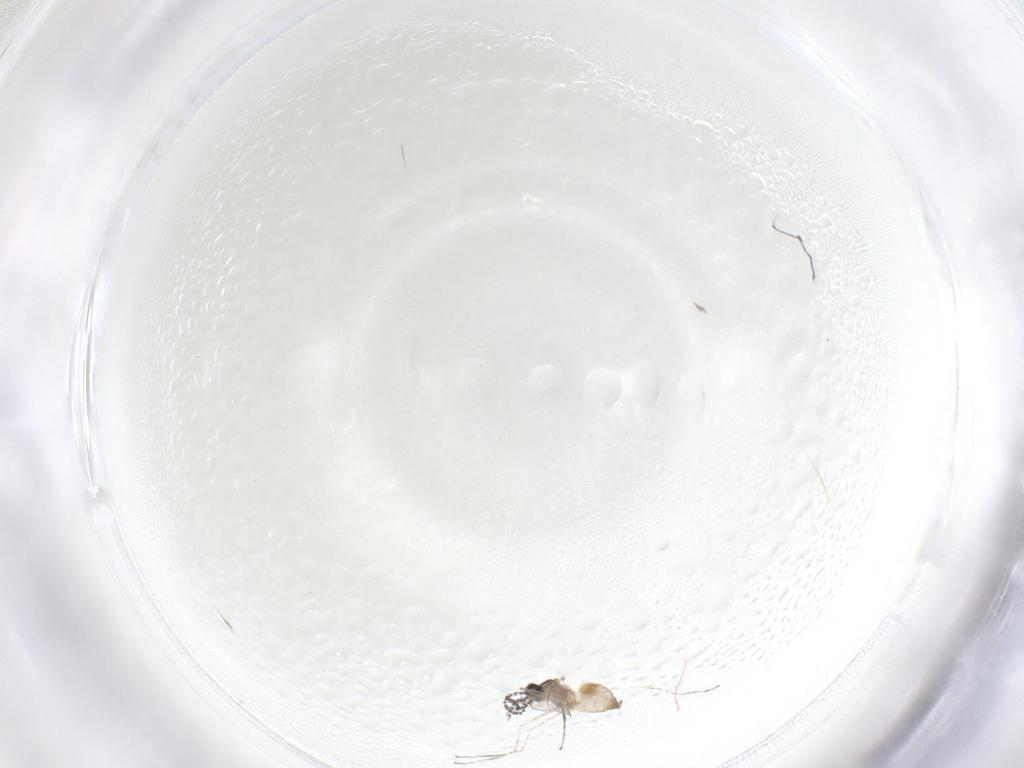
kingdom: Animalia
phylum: Arthropoda
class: Insecta
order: Diptera
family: Limoniidae
